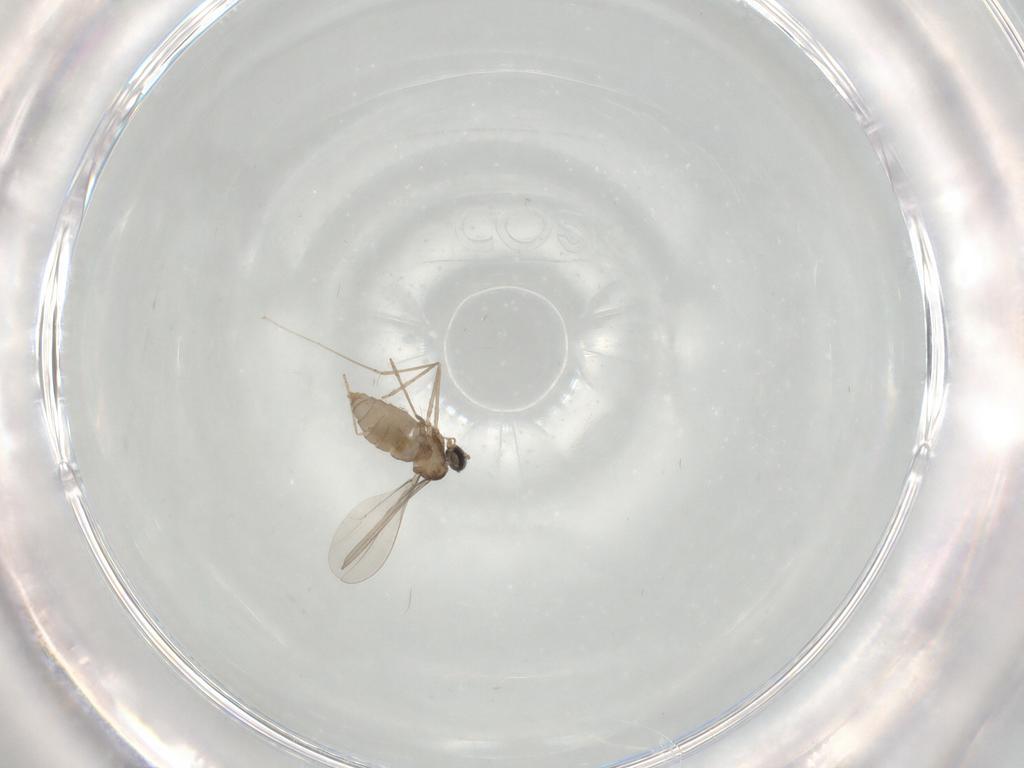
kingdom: Animalia
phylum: Arthropoda
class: Insecta
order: Diptera
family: Cecidomyiidae
